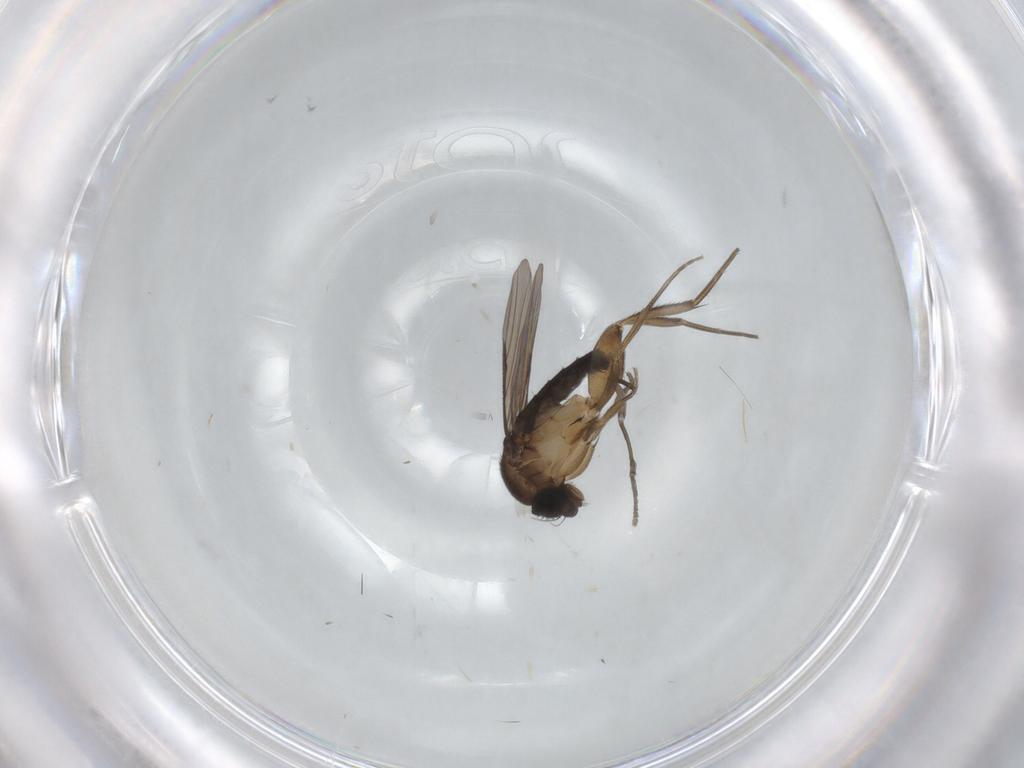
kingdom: Animalia
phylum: Arthropoda
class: Insecta
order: Diptera
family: Phoridae
